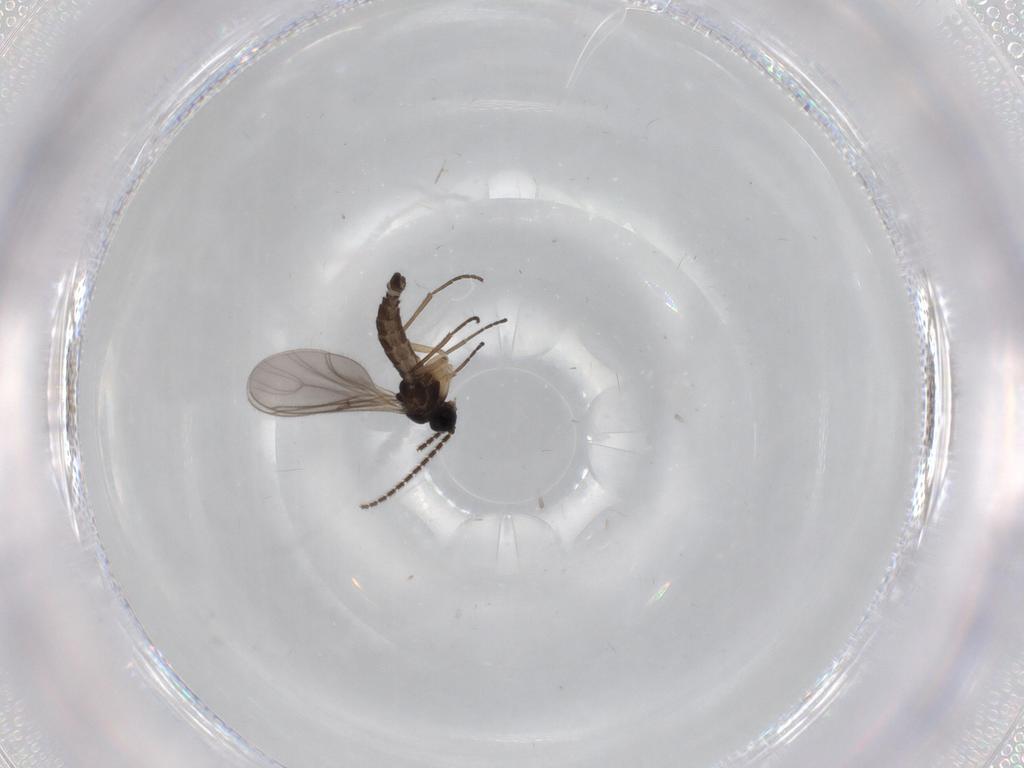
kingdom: Animalia
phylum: Arthropoda
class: Insecta
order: Diptera
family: Sciaridae
